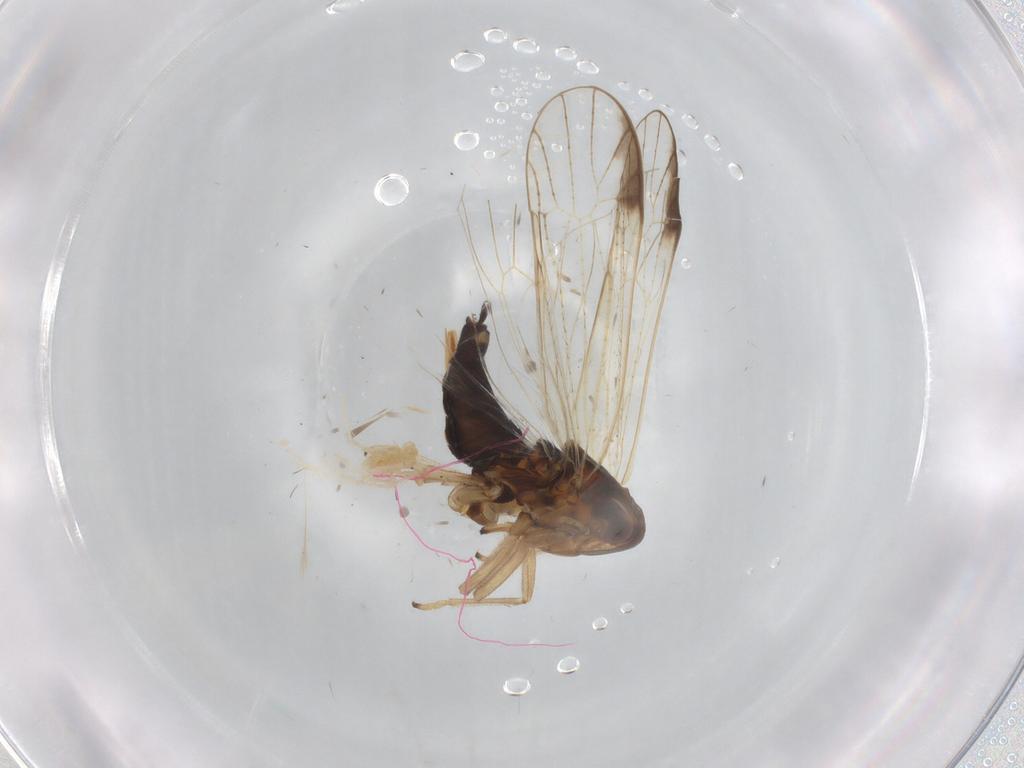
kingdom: Animalia
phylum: Arthropoda
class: Insecta
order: Hemiptera
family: Delphacidae
